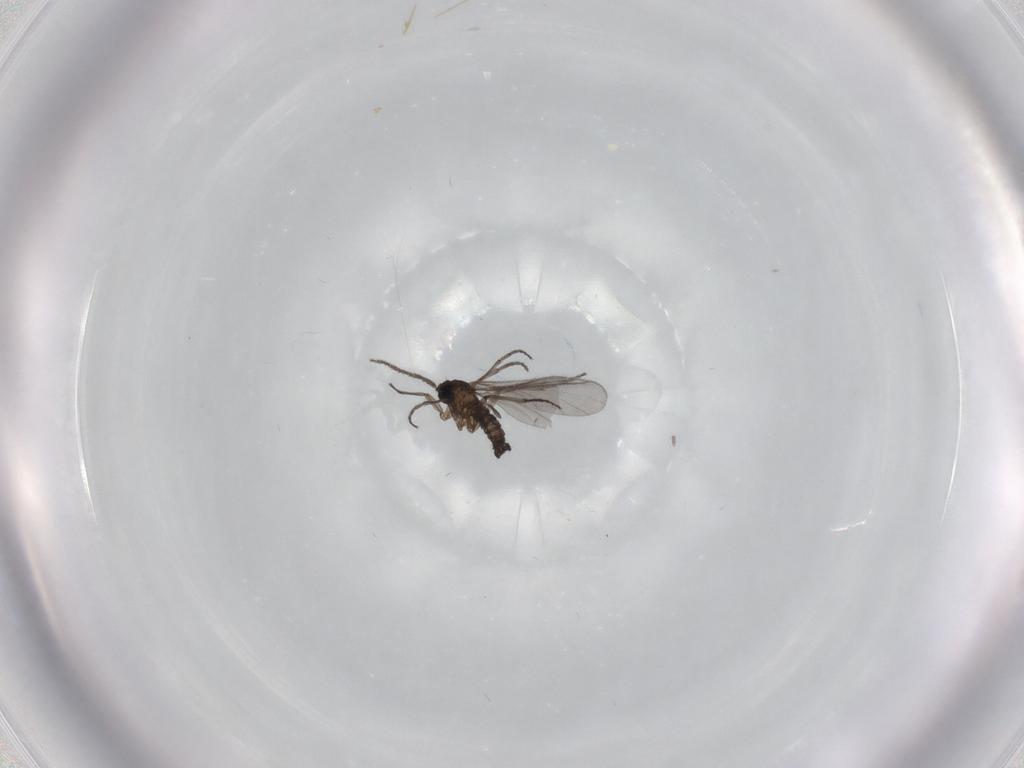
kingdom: Animalia
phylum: Arthropoda
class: Insecta
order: Diptera
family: Sciaridae
